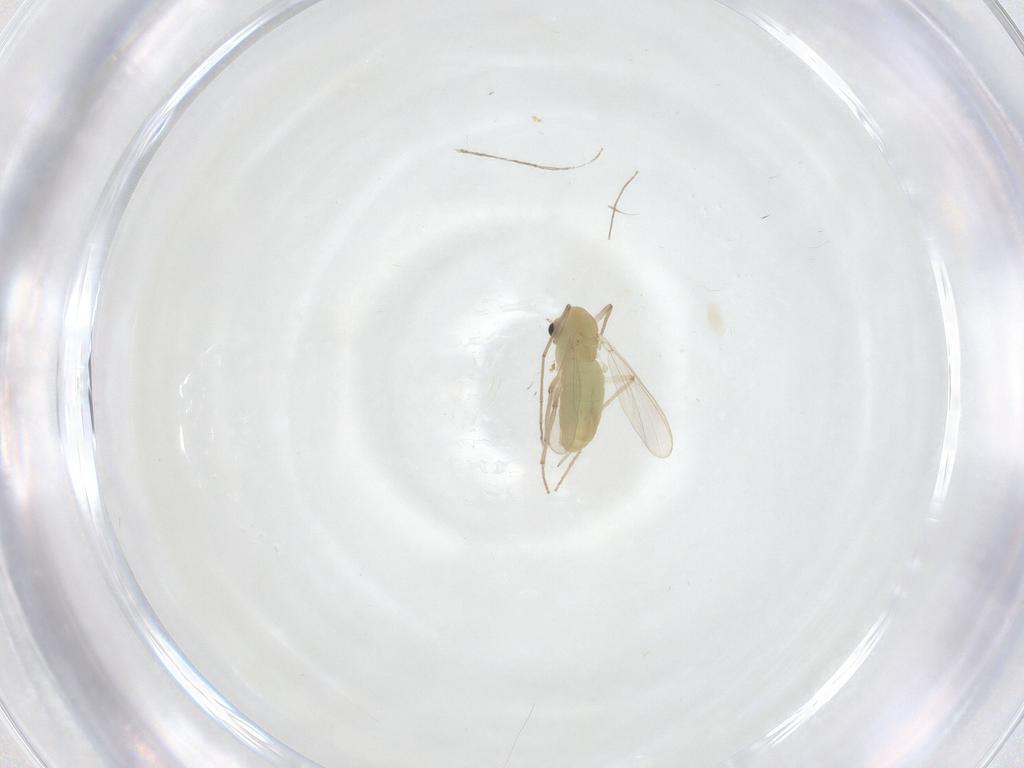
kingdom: Animalia
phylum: Arthropoda
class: Insecta
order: Diptera
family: Chironomidae
